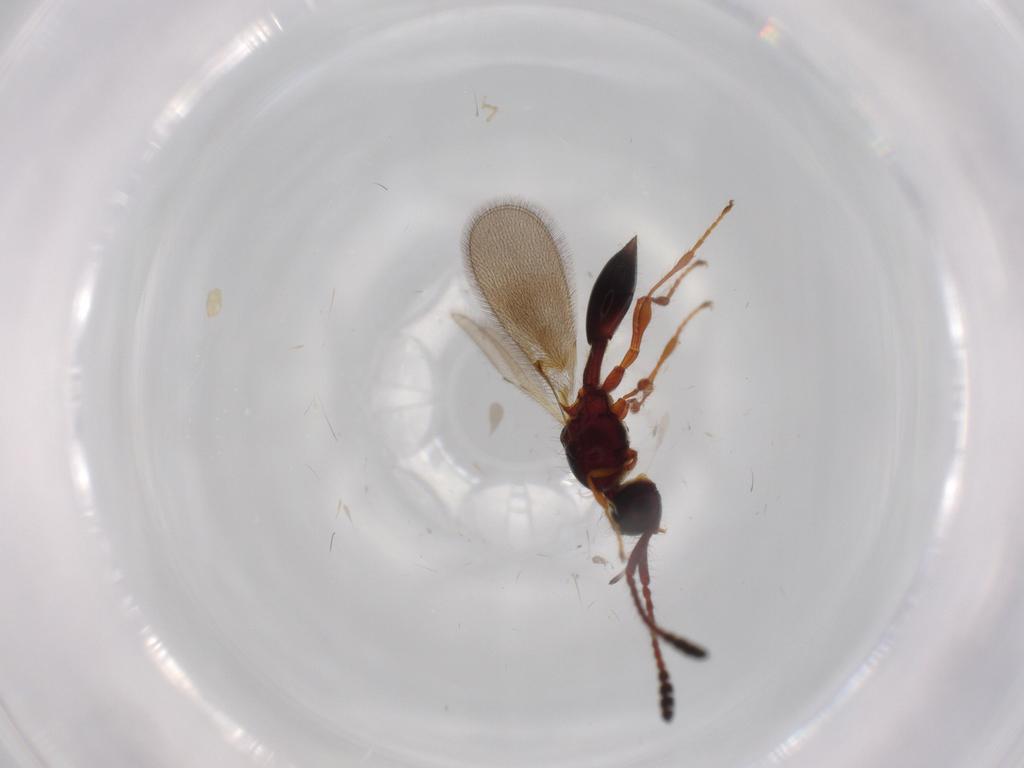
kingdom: Animalia
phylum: Arthropoda
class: Insecta
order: Hymenoptera
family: Diapriidae
